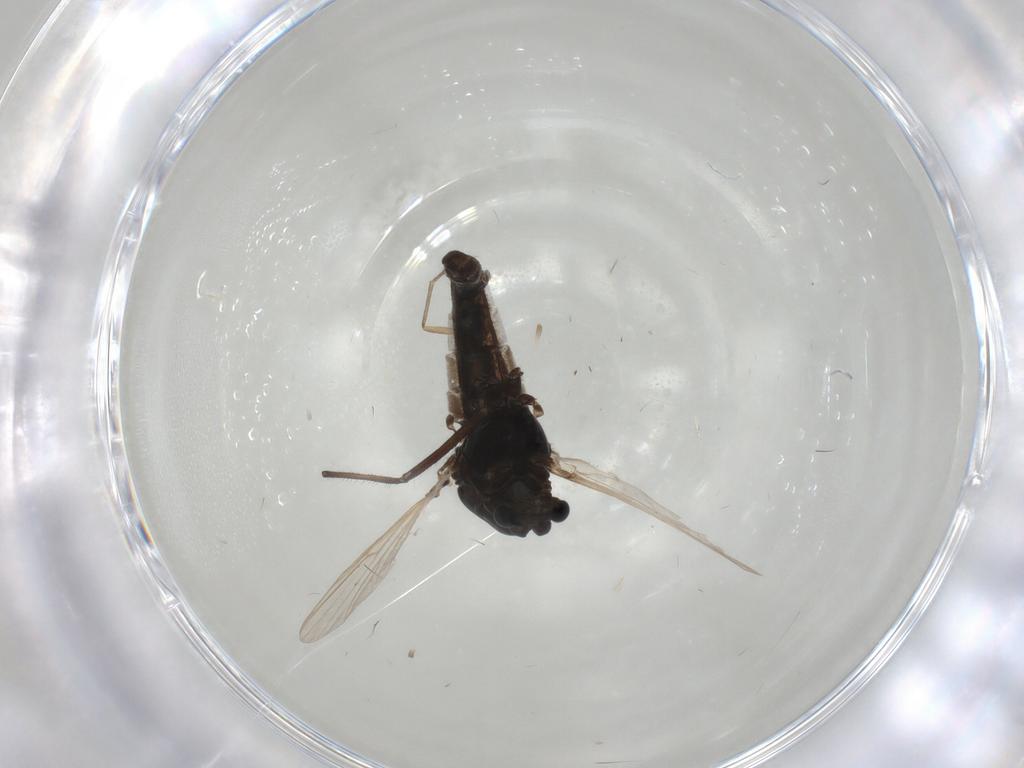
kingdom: Animalia
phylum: Arthropoda
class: Insecta
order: Diptera
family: Chironomidae
